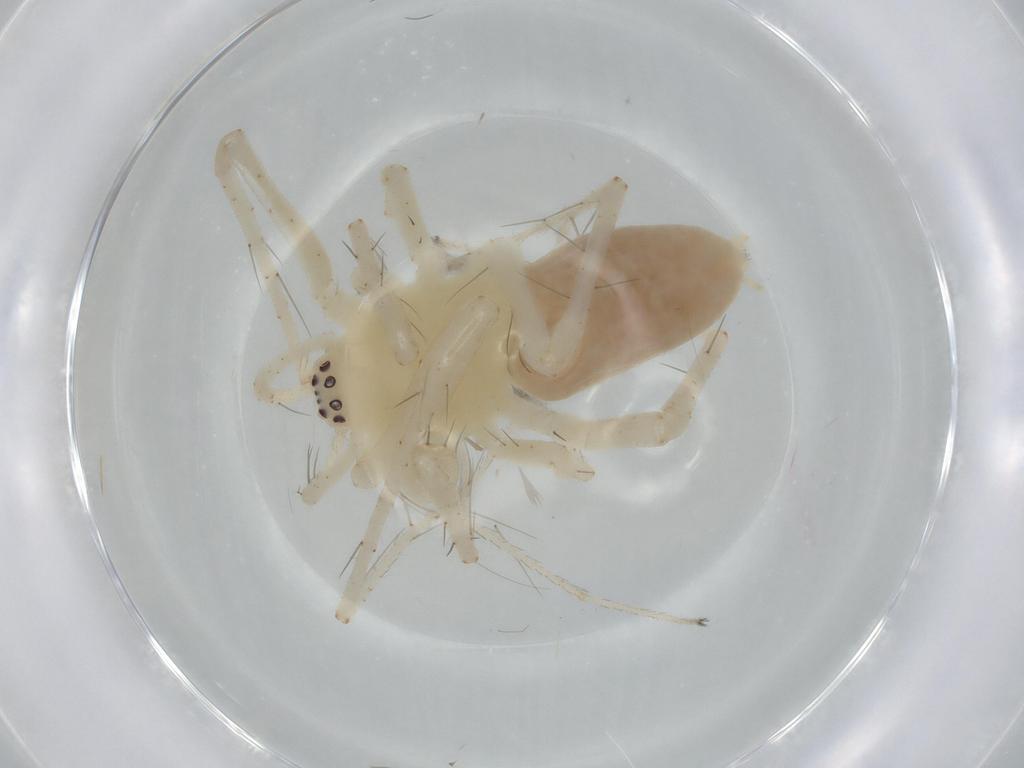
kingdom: Animalia
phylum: Arthropoda
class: Arachnida
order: Araneae
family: Anyphaenidae
